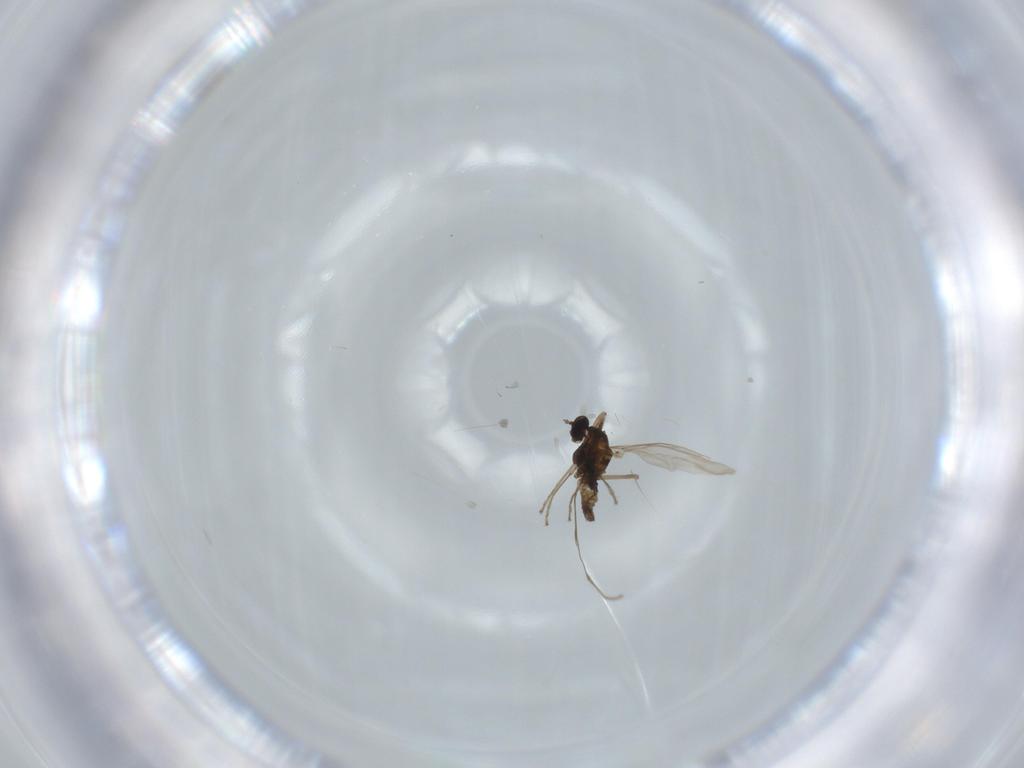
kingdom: Animalia
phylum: Arthropoda
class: Insecta
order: Diptera
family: Cecidomyiidae
